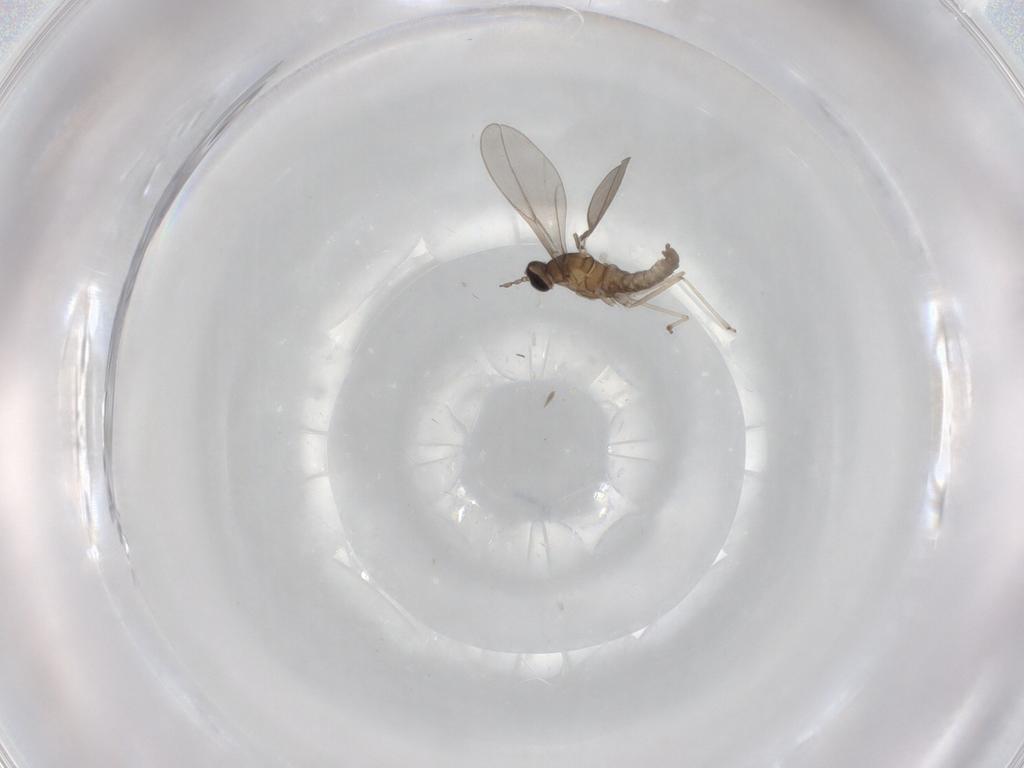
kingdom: Animalia
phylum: Arthropoda
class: Insecta
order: Diptera
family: Cecidomyiidae
